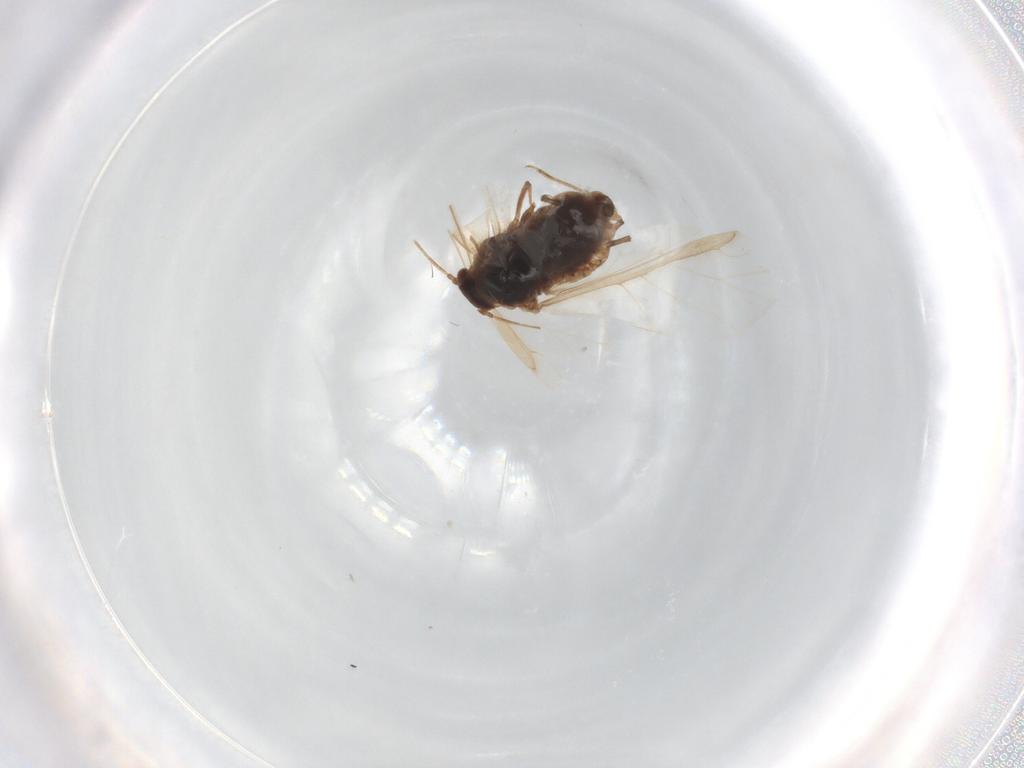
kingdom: Animalia
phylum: Arthropoda
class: Insecta
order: Hemiptera
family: Aphididae
